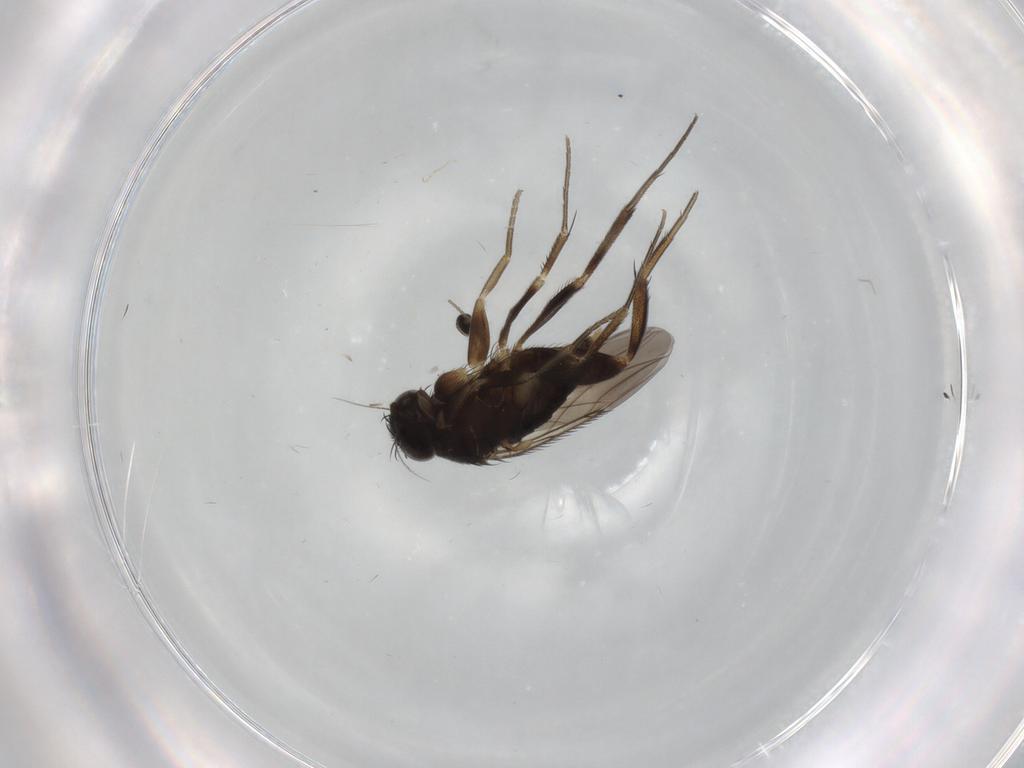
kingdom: Animalia
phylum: Arthropoda
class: Insecta
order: Diptera
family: Phoridae
